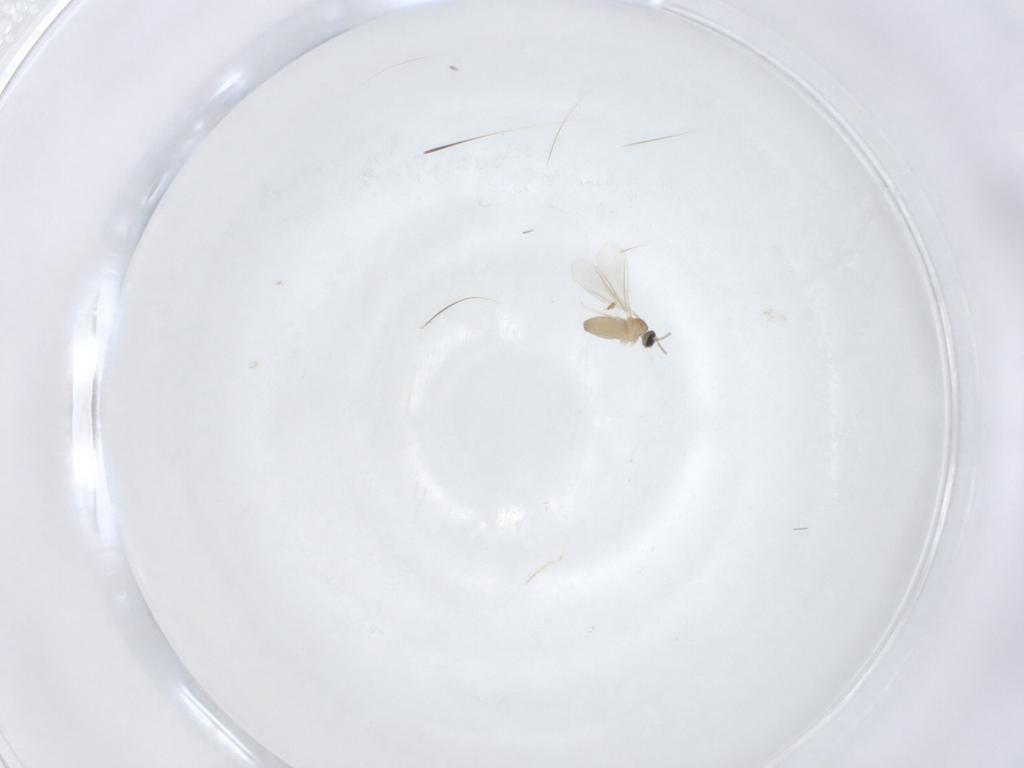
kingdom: Animalia
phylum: Arthropoda
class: Insecta
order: Diptera
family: Cecidomyiidae
